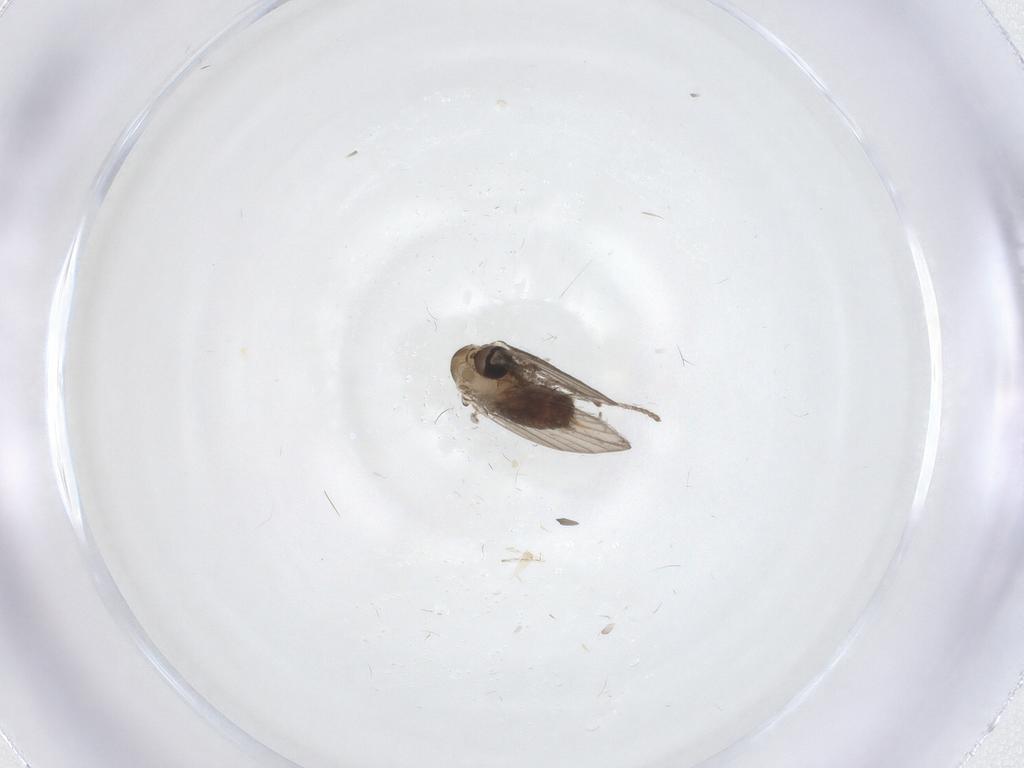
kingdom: Animalia
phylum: Arthropoda
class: Insecta
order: Diptera
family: Psychodidae
